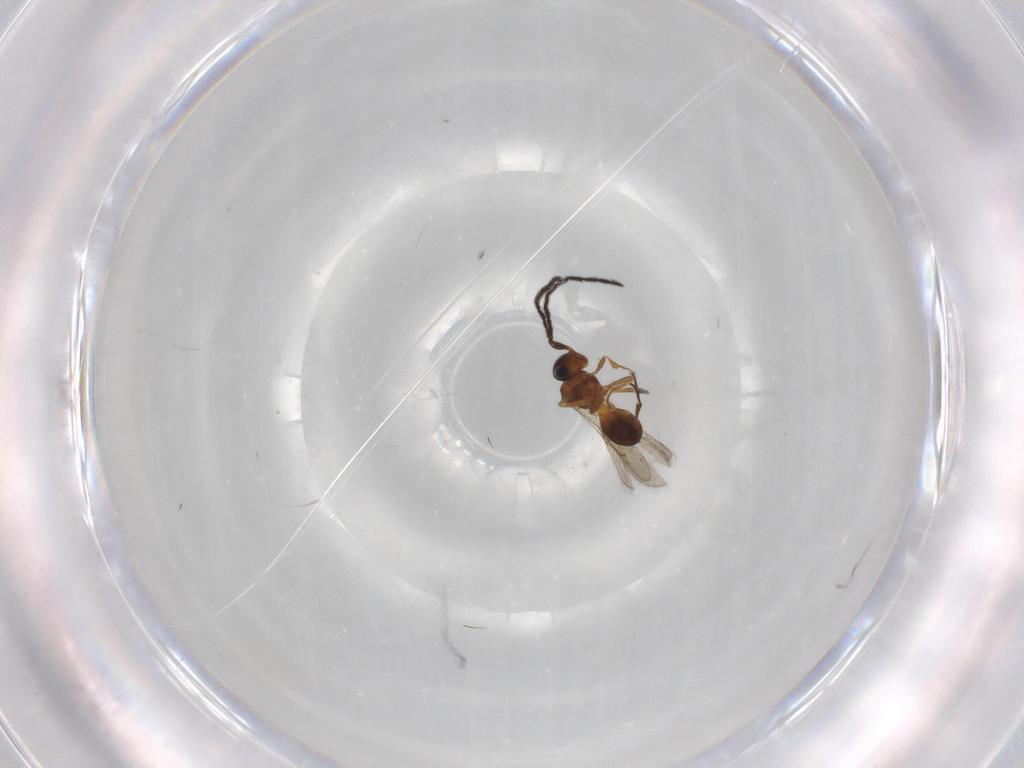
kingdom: Animalia
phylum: Arthropoda
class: Insecta
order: Hymenoptera
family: Scelionidae
